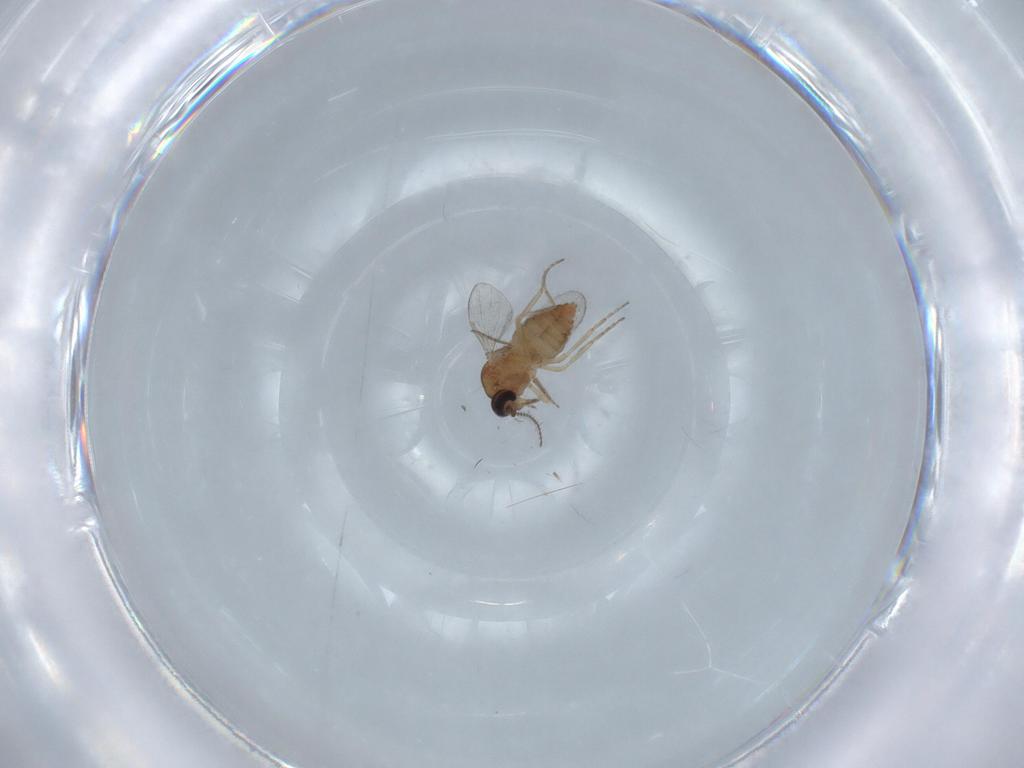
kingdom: Animalia
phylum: Arthropoda
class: Insecta
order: Diptera
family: Ceratopogonidae
